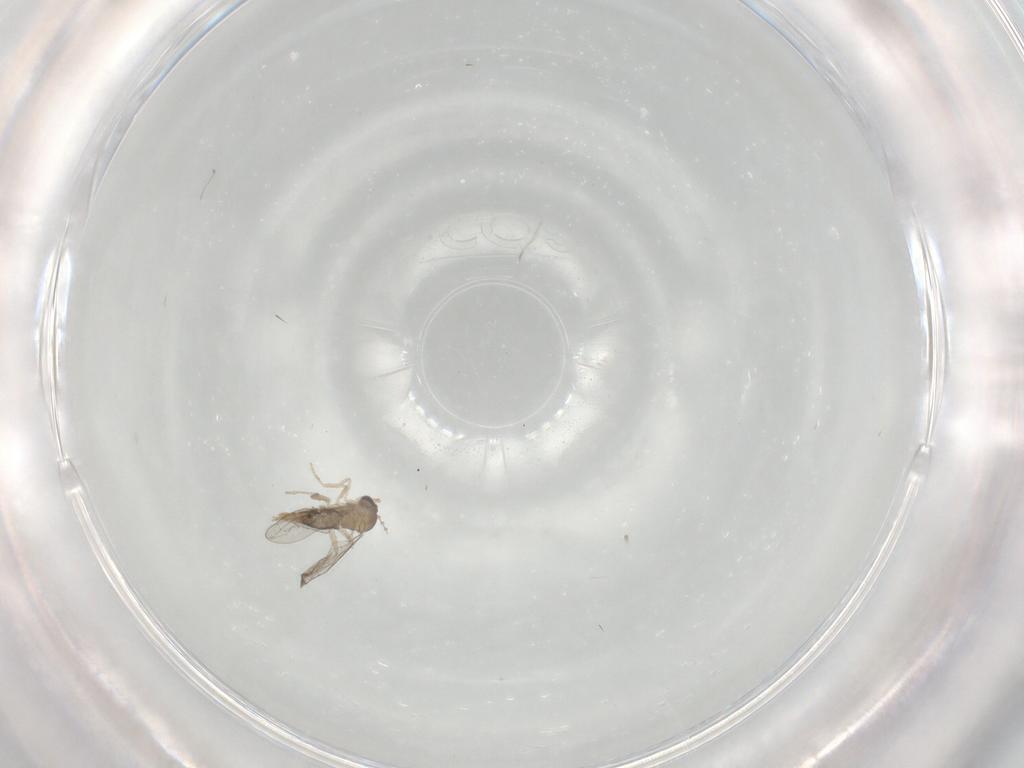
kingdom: Animalia
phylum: Arthropoda
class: Insecta
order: Diptera
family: Cecidomyiidae
